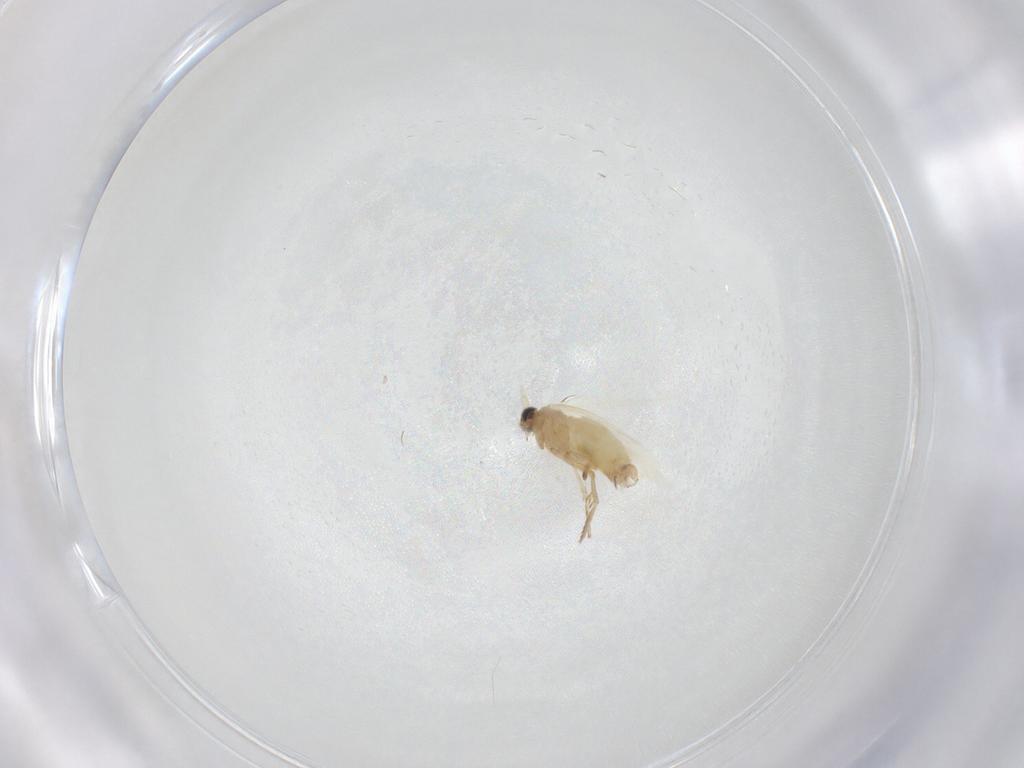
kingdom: Animalia
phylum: Arthropoda
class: Insecta
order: Lepidoptera
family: Nepticulidae
